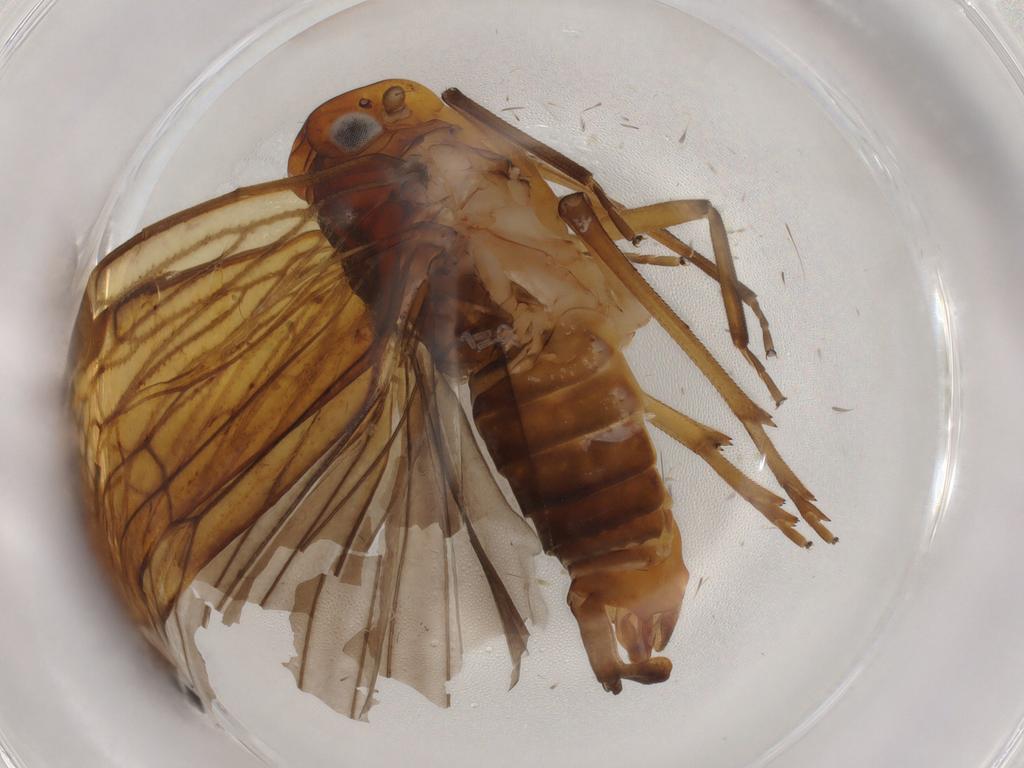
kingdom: Animalia
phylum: Arthropoda
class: Insecta
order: Hemiptera
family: Cixiidae
